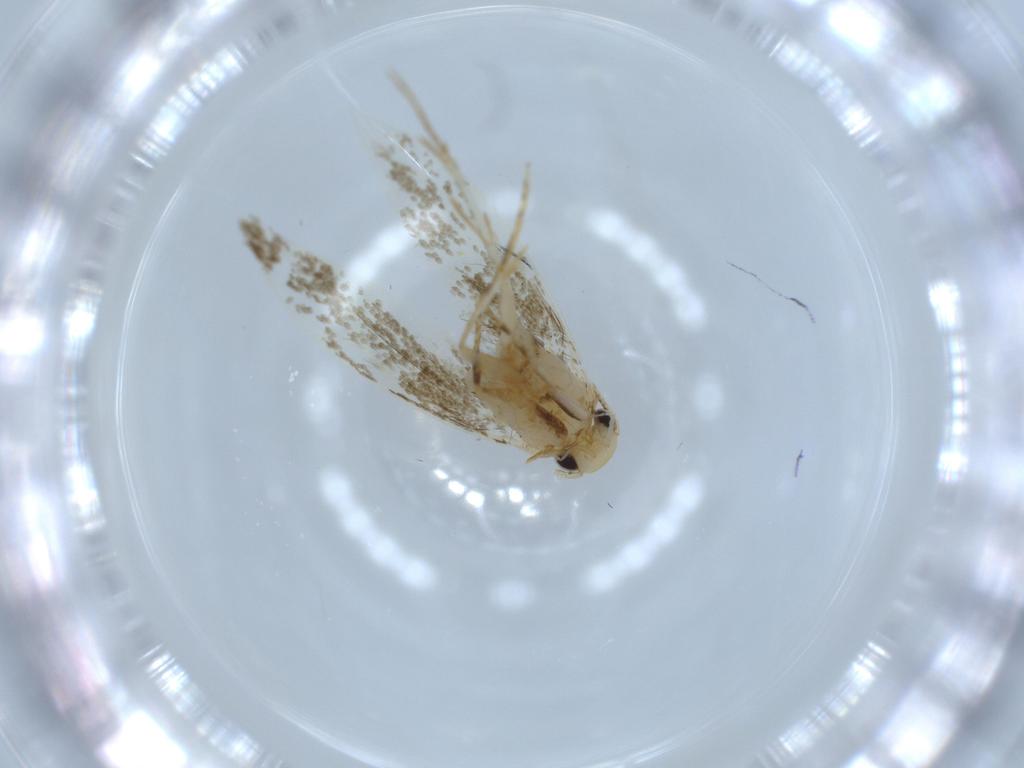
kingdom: Animalia
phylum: Arthropoda
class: Insecta
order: Lepidoptera
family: Tineidae
